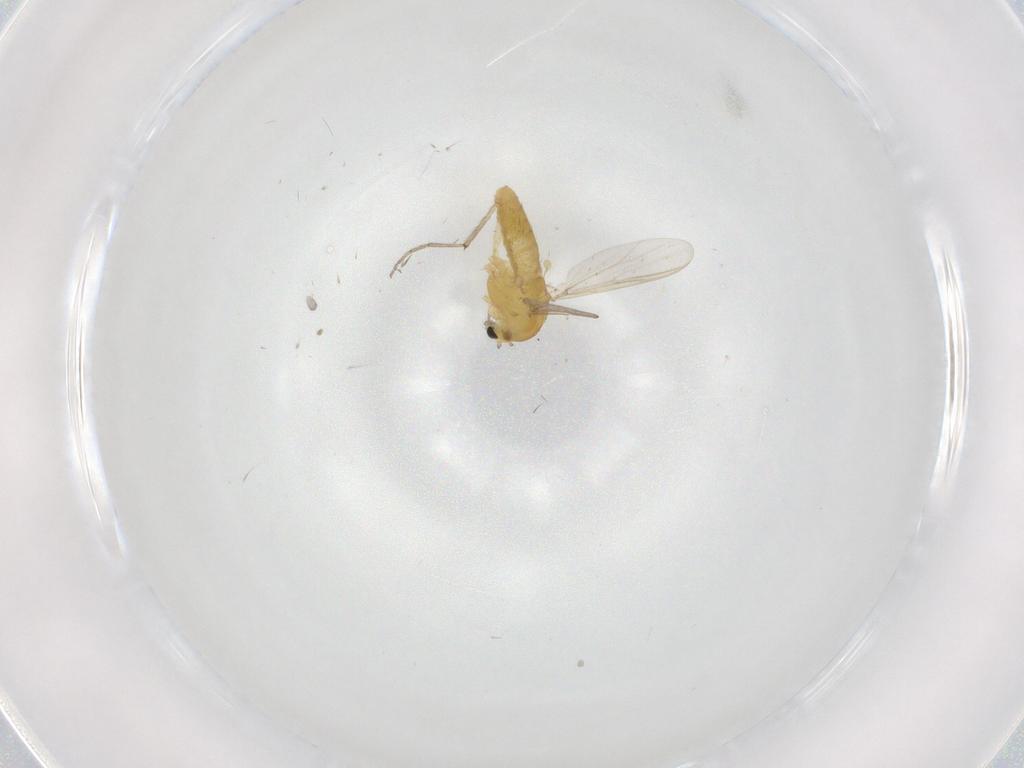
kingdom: Animalia
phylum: Arthropoda
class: Insecta
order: Diptera
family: Chironomidae
